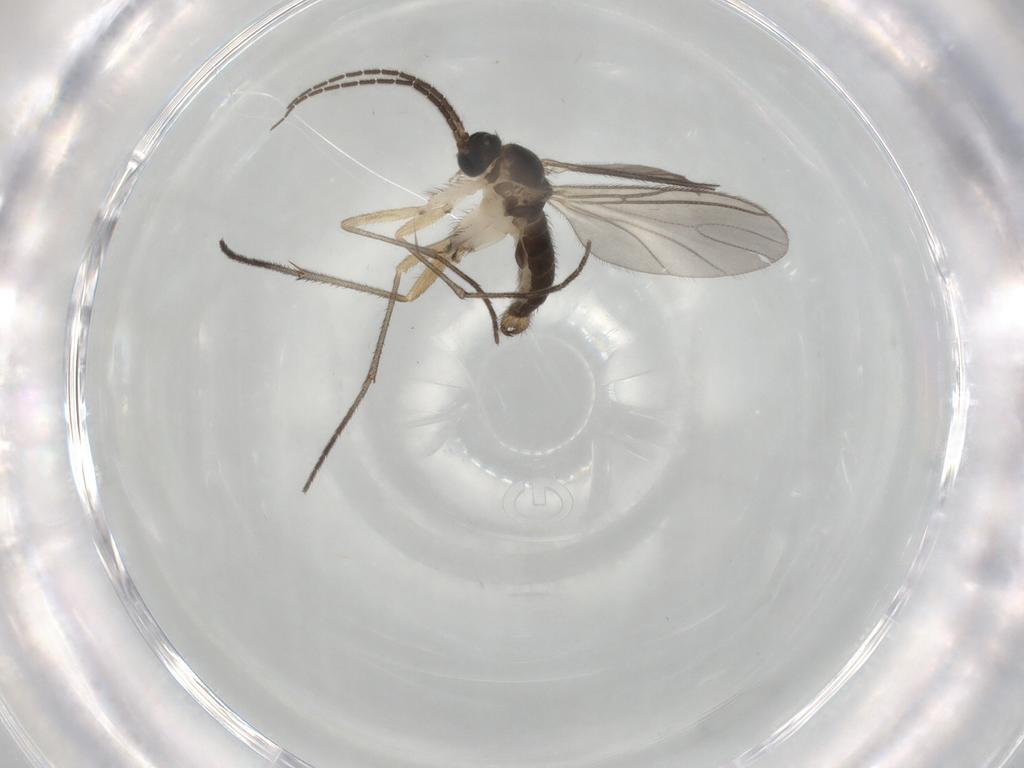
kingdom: Animalia
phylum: Arthropoda
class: Insecta
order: Diptera
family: Sciaridae
